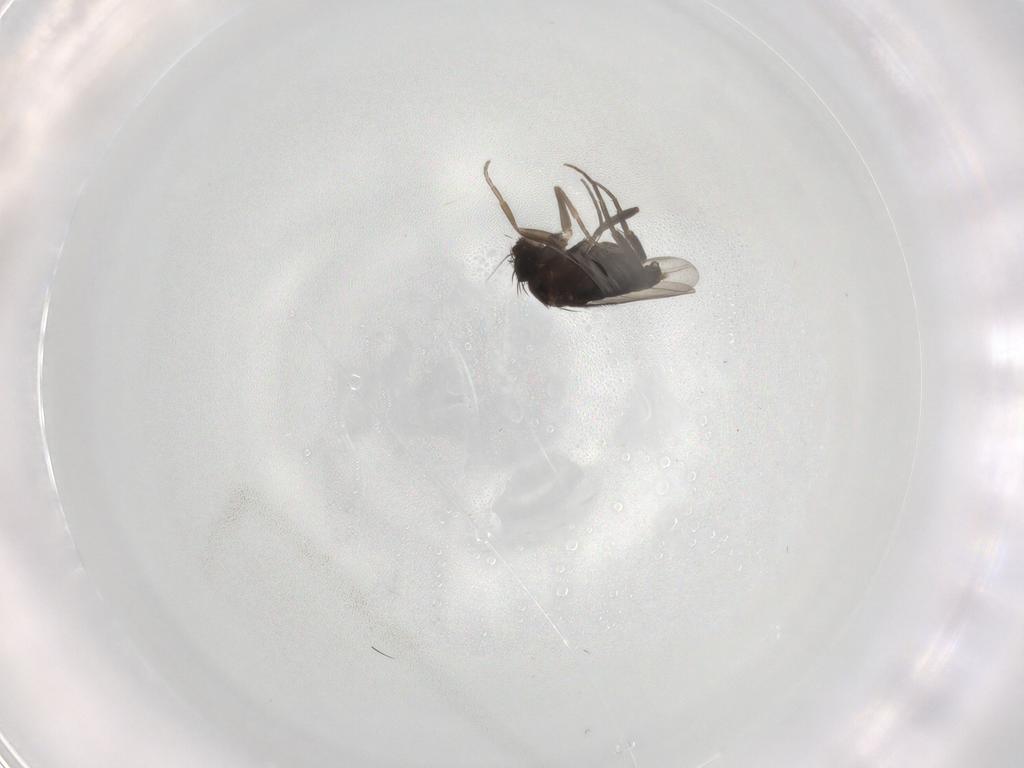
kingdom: Animalia
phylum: Arthropoda
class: Insecta
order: Diptera
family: Phoridae
